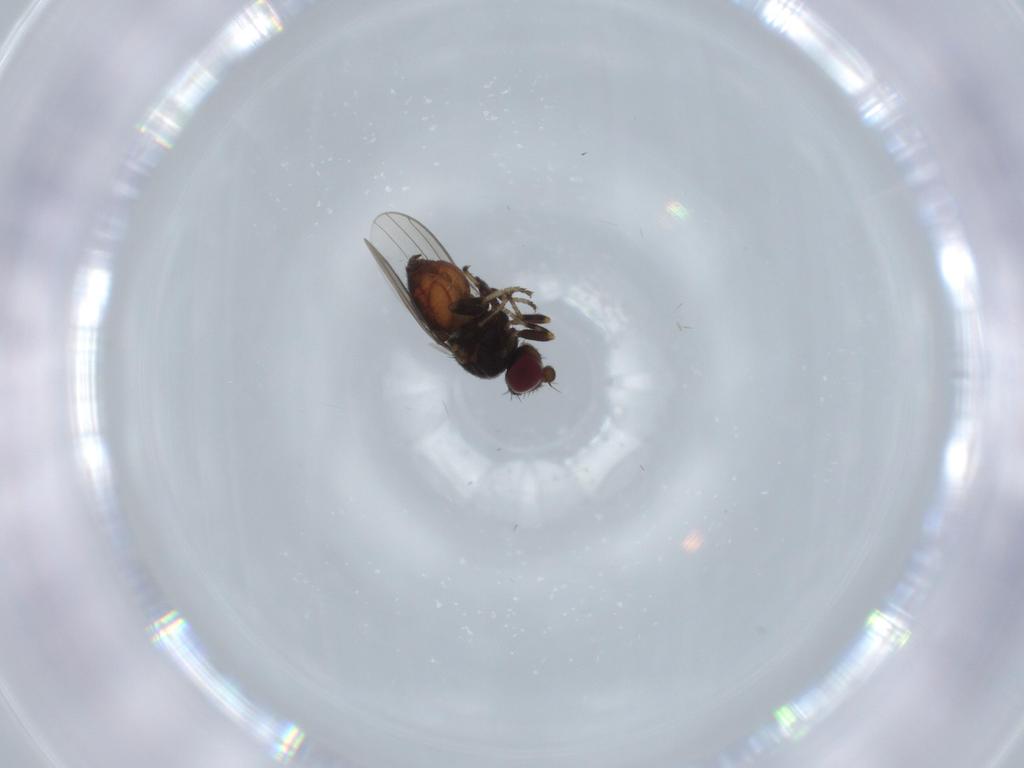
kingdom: Animalia
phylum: Arthropoda
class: Insecta
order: Diptera
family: Chloropidae
